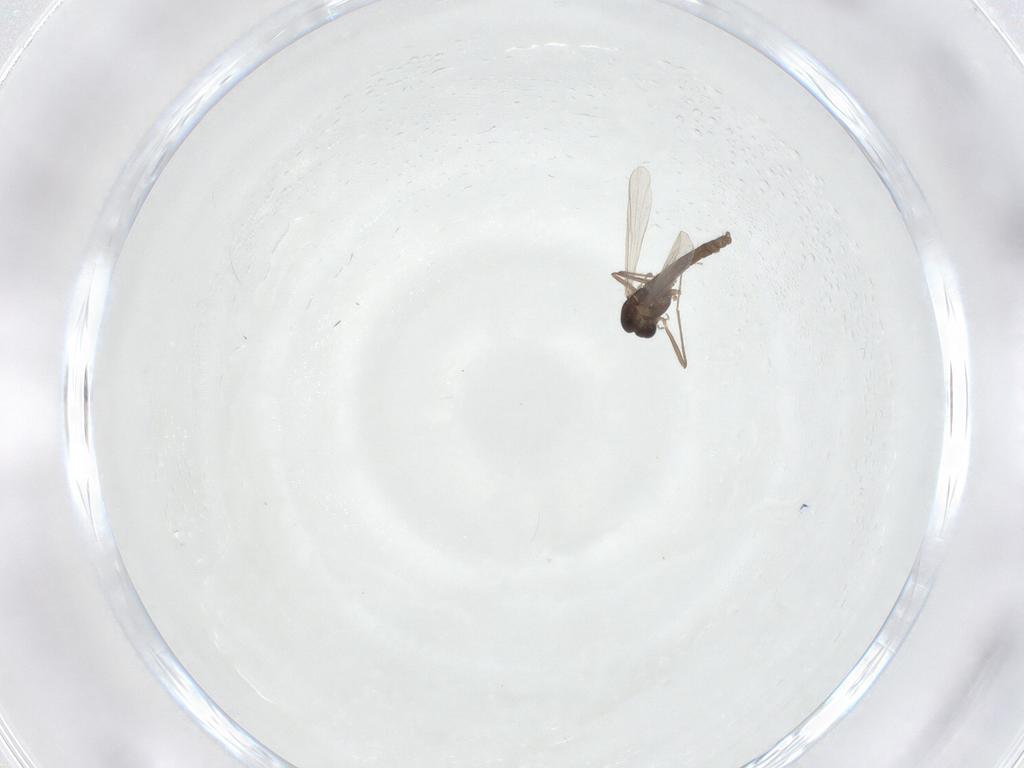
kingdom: Animalia
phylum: Arthropoda
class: Insecta
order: Diptera
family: Chironomidae
